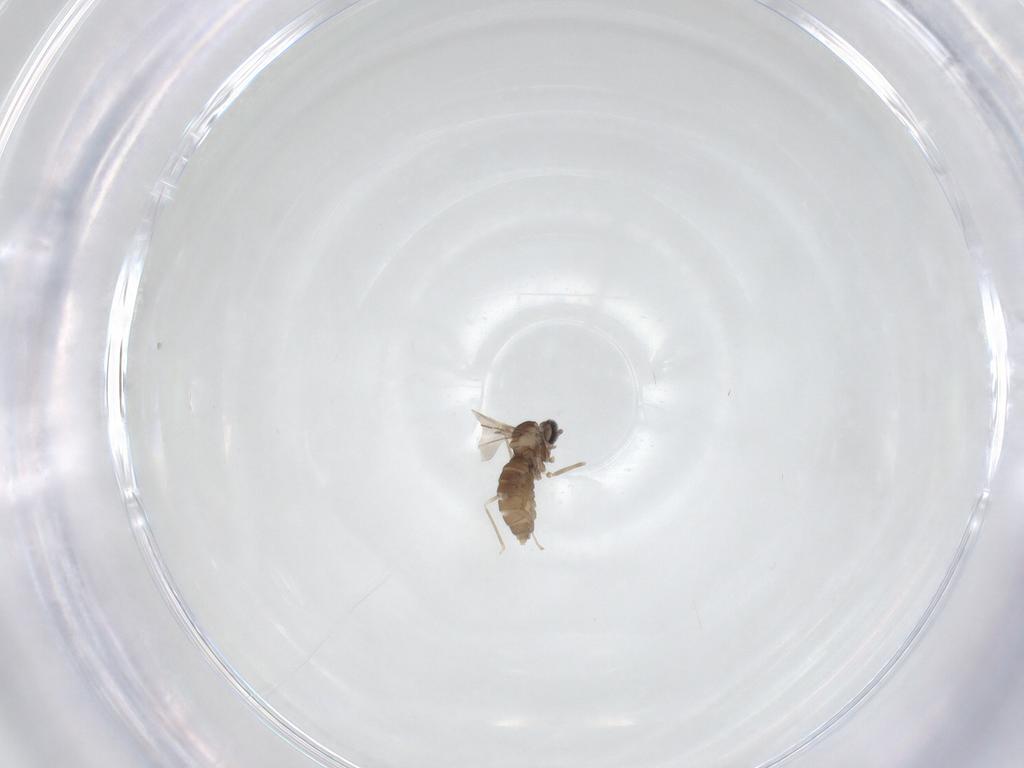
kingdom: Animalia
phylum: Arthropoda
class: Insecta
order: Diptera
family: Cecidomyiidae
